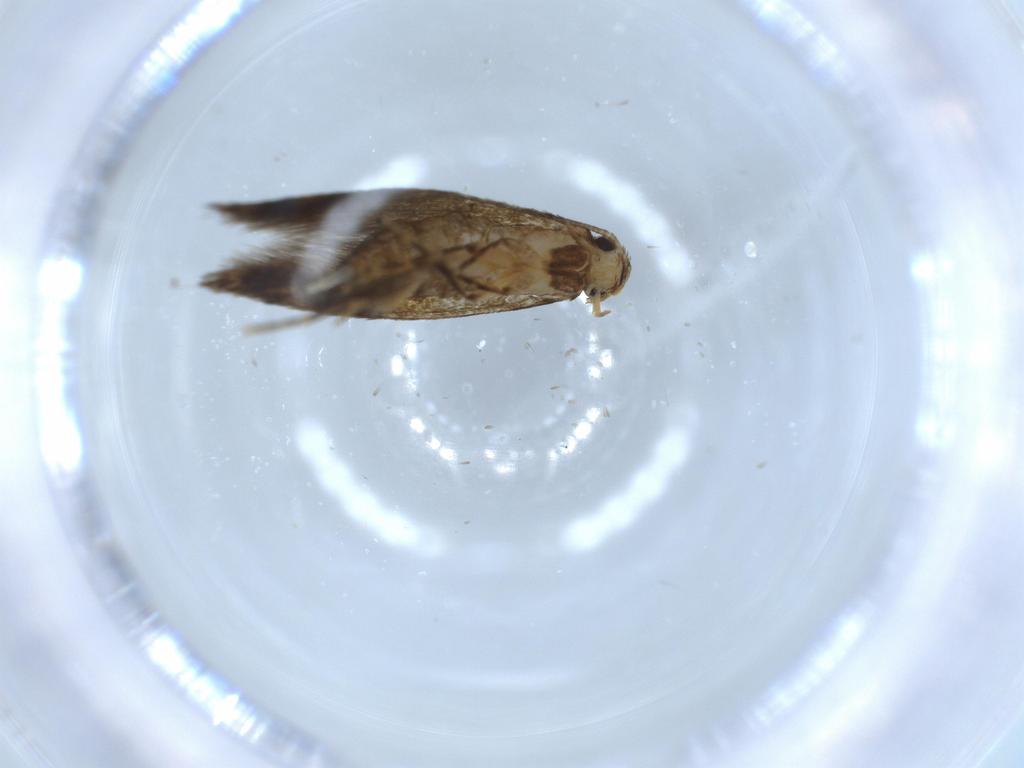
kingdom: Animalia
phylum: Arthropoda
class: Insecta
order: Lepidoptera
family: Tineidae
